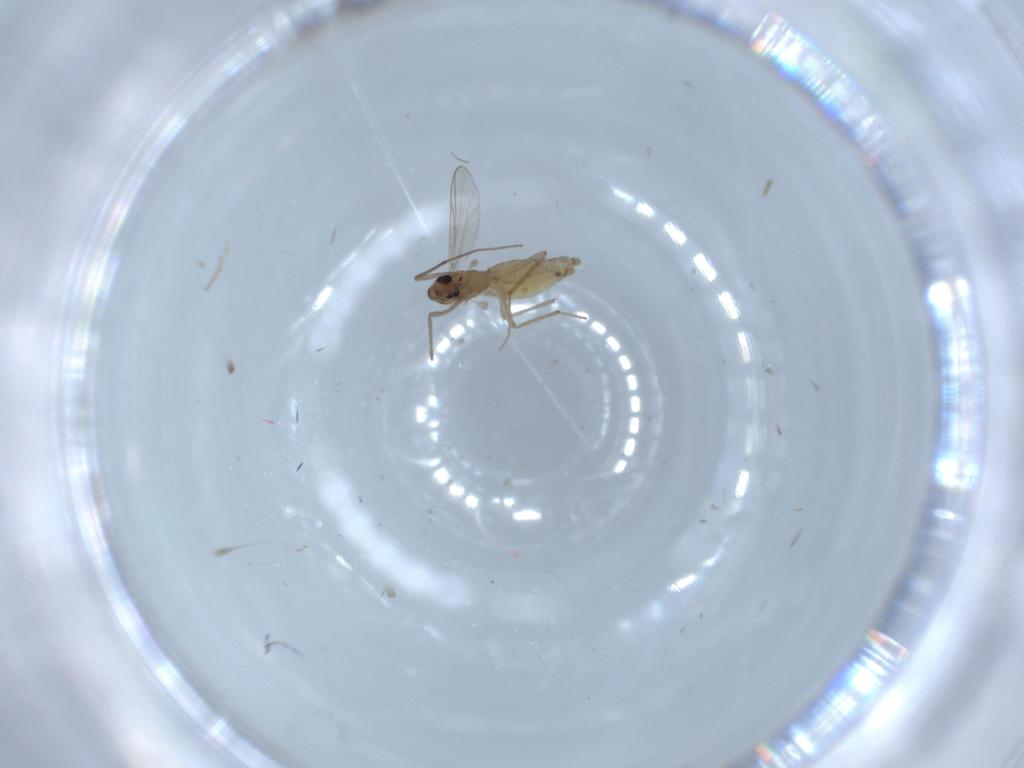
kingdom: Animalia
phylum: Arthropoda
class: Insecta
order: Diptera
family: Chironomidae
